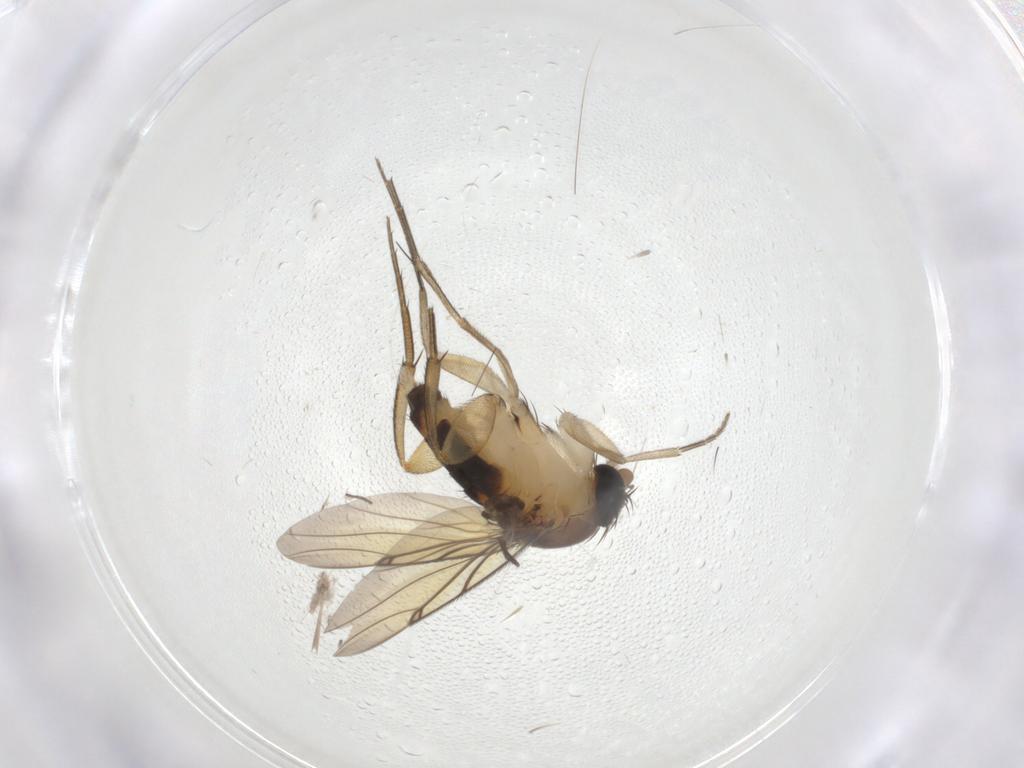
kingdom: Animalia
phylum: Arthropoda
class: Insecta
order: Diptera
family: Chironomidae
